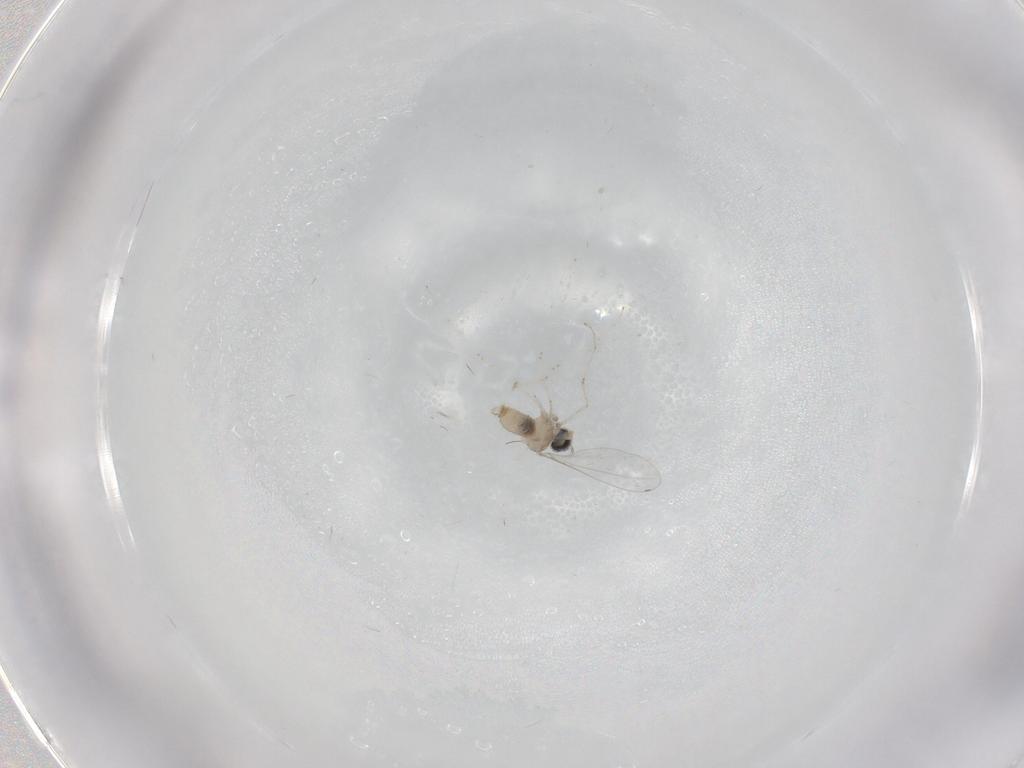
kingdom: Animalia
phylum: Arthropoda
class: Insecta
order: Diptera
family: Cecidomyiidae
